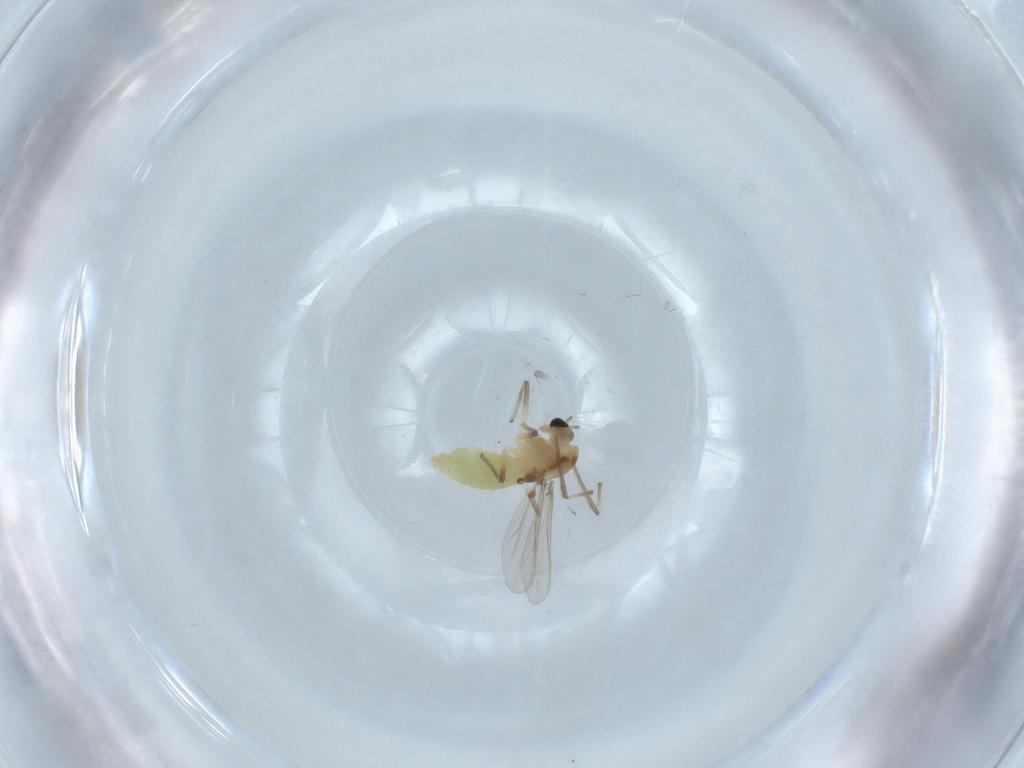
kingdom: Animalia
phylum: Arthropoda
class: Insecta
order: Diptera
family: Chironomidae
